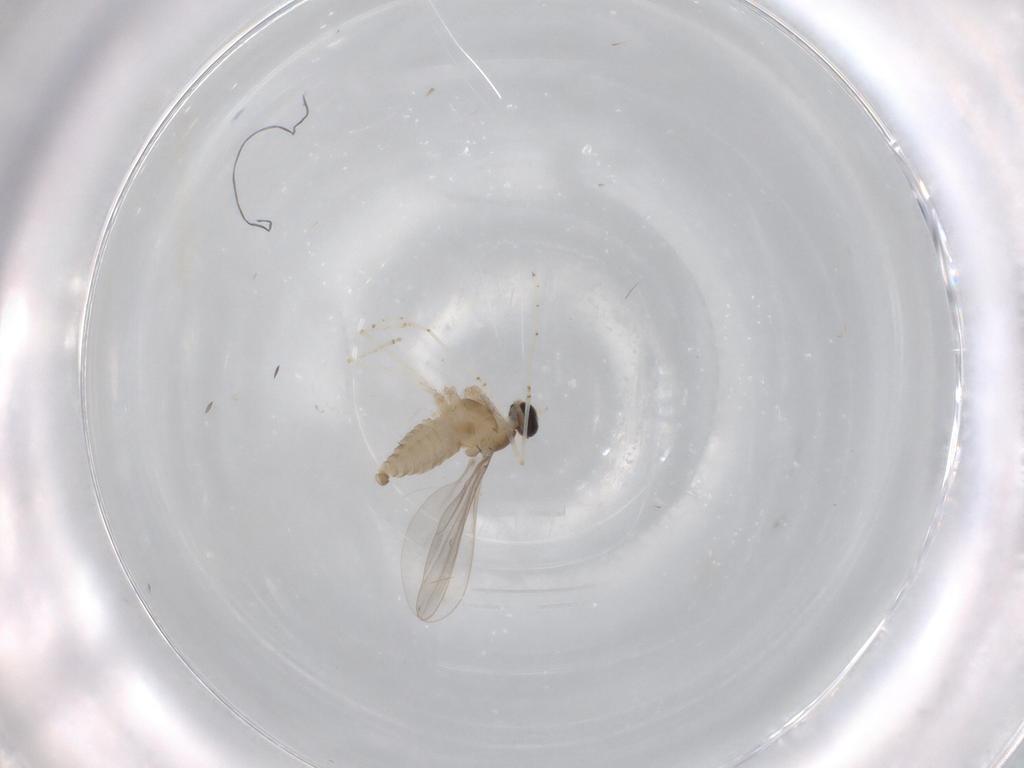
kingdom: Animalia
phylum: Arthropoda
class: Insecta
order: Diptera
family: Cecidomyiidae
